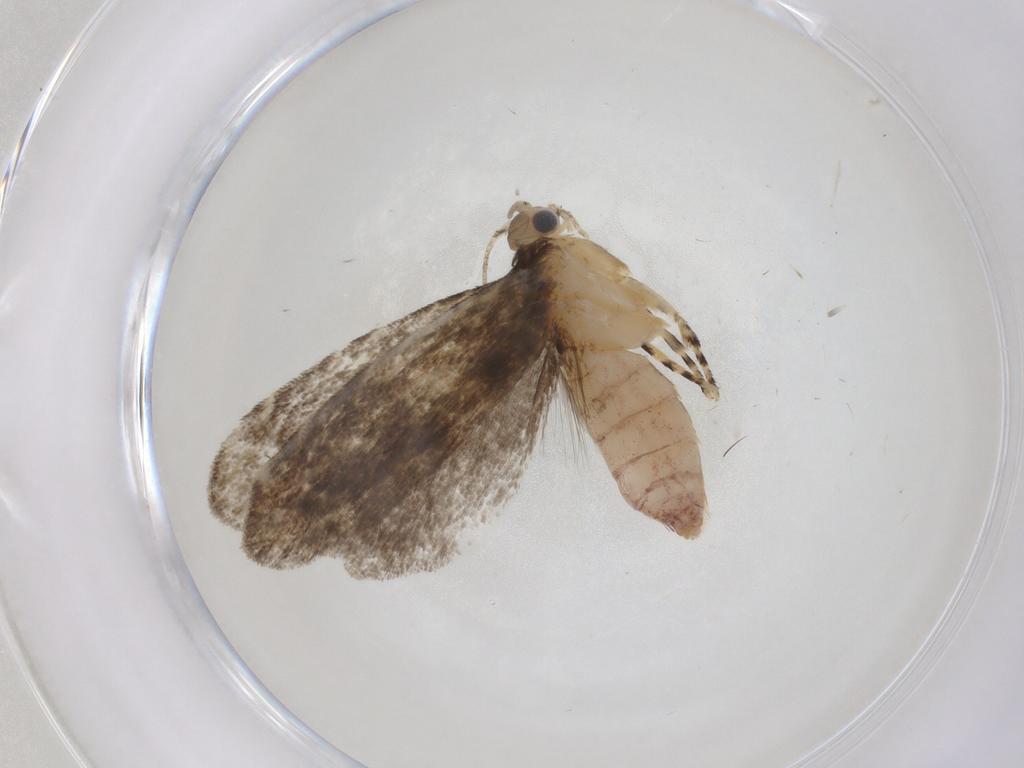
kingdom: Animalia
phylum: Arthropoda
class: Insecta
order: Lepidoptera
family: Tineidae
